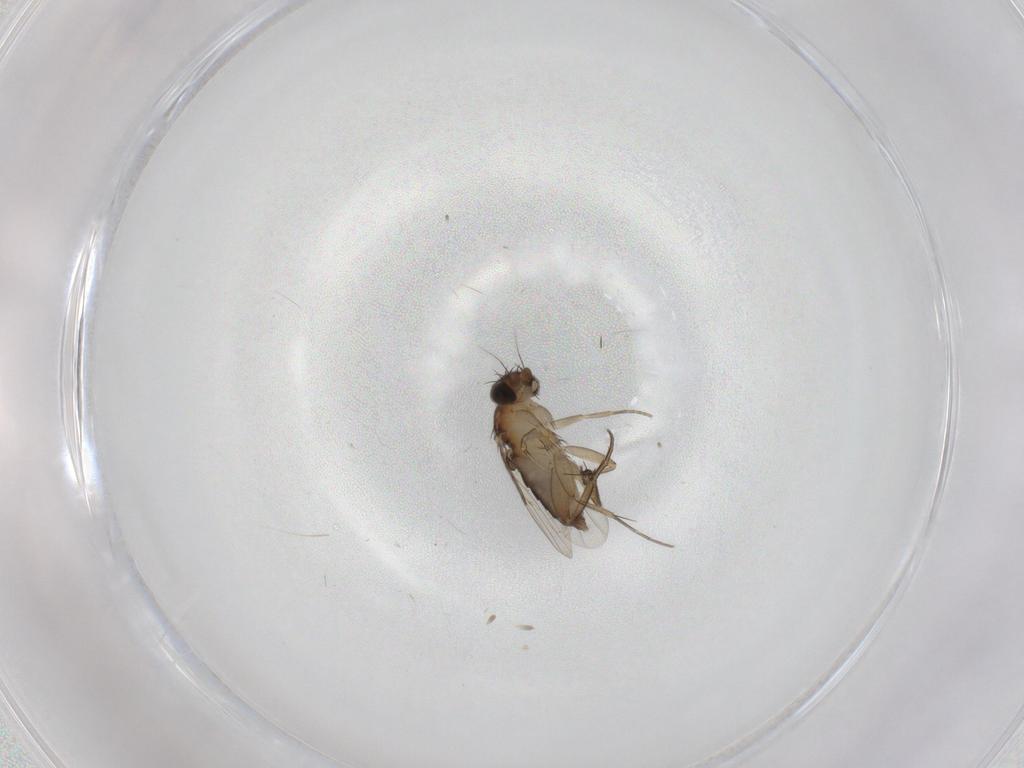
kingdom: Animalia
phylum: Arthropoda
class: Insecta
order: Diptera
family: Phoridae
